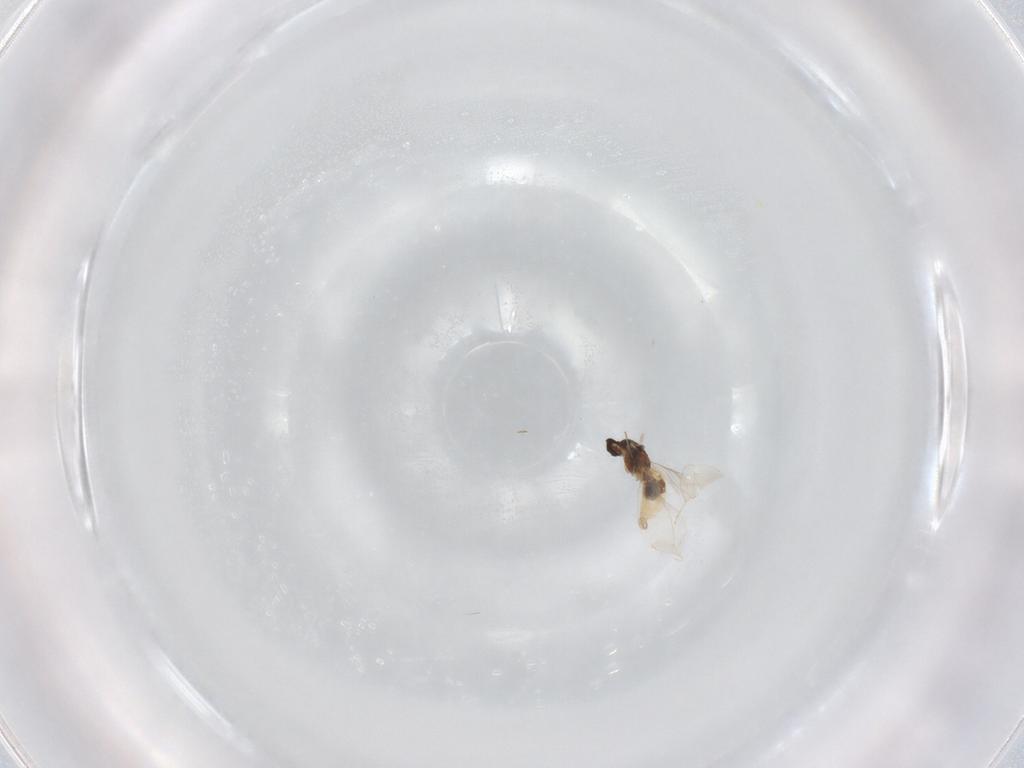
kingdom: Animalia
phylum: Arthropoda
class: Insecta
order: Diptera
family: Cecidomyiidae
